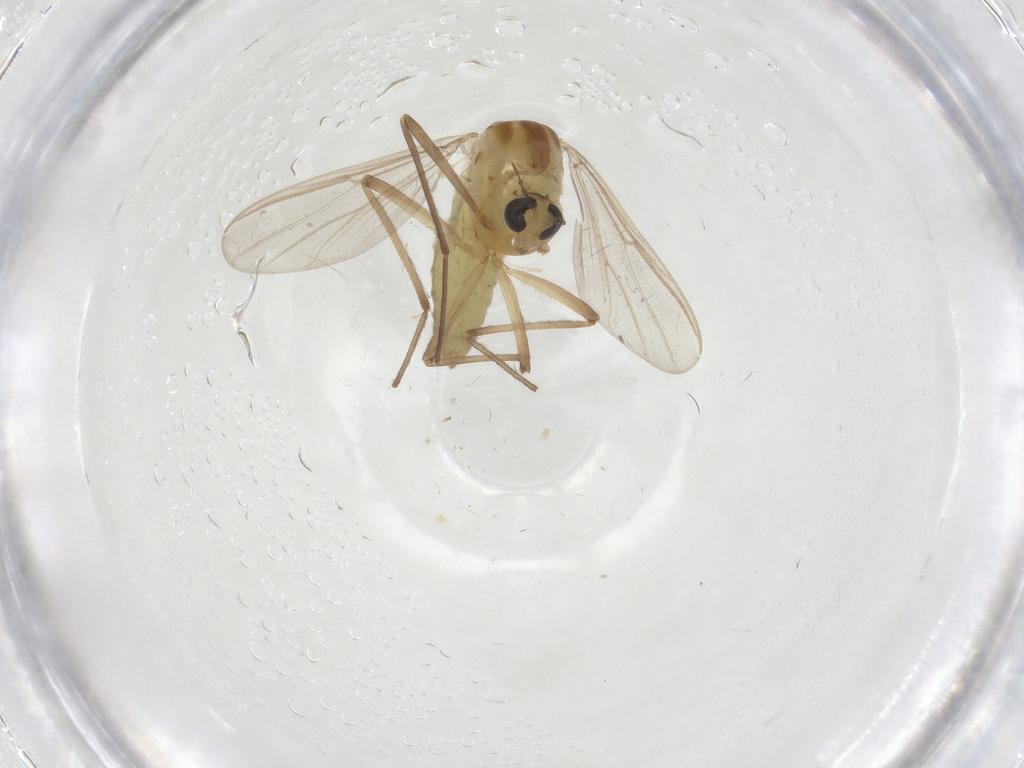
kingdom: Animalia
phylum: Arthropoda
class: Insecta
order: Diptera
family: Chironomidae
